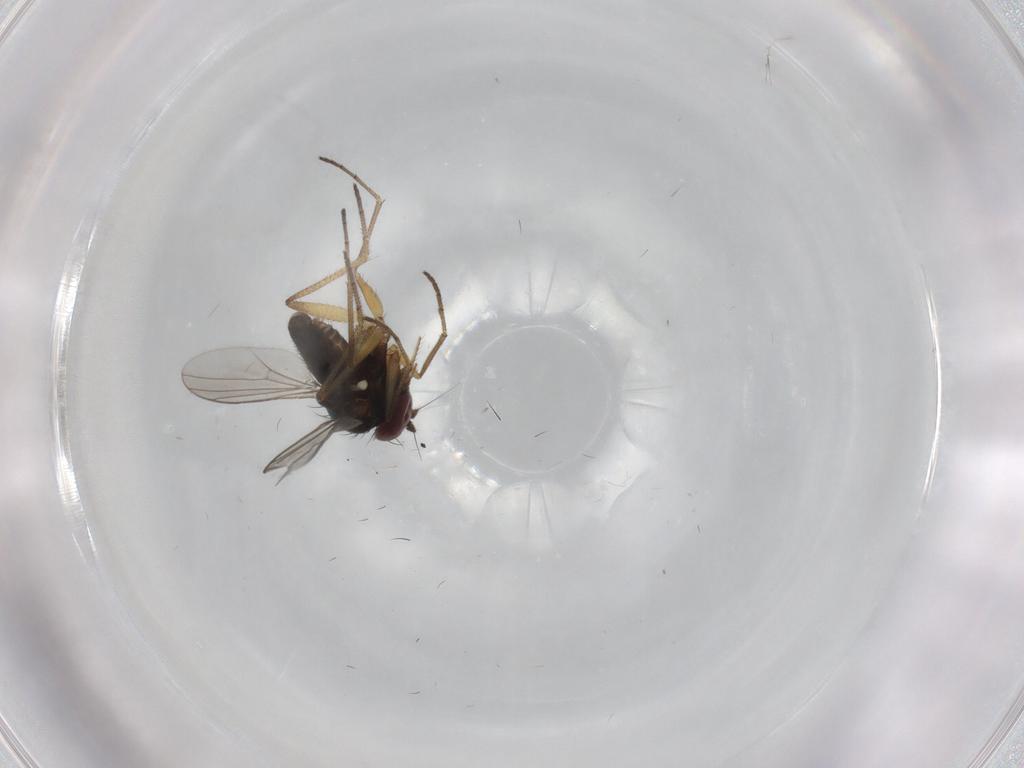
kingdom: Animalia
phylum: Arthropoda
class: Insecta
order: Diptera
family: Dolichopodidae
